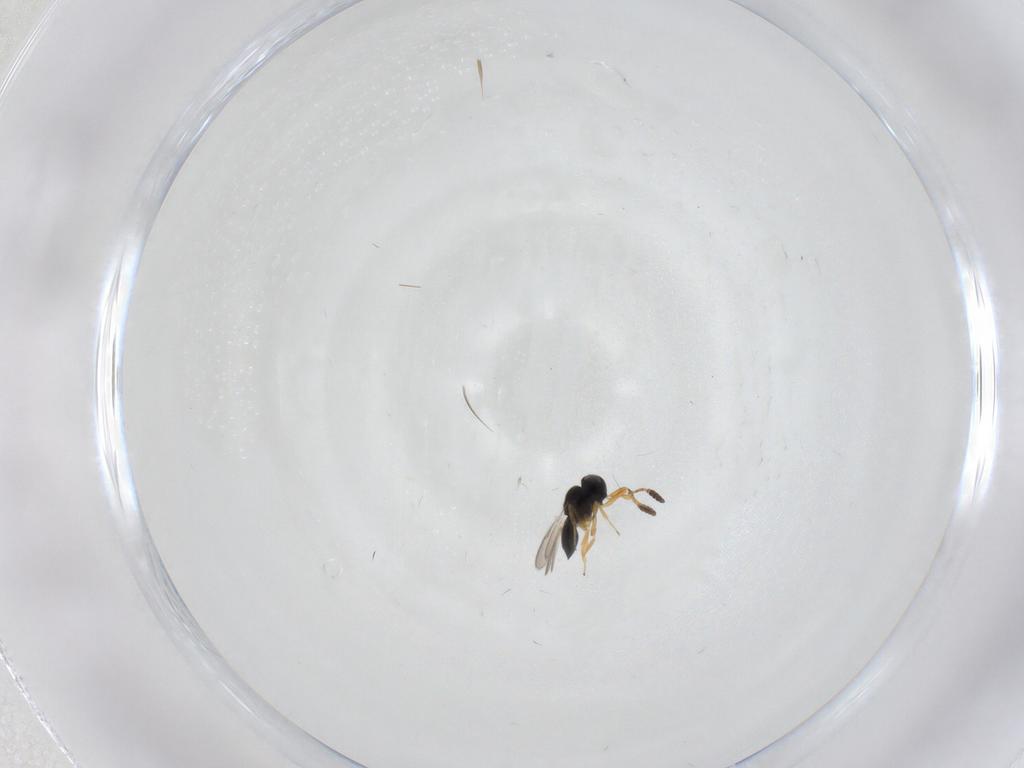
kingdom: Animalia
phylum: Arthropoda
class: Insecta
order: Hymenoptera
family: Scelionidae
